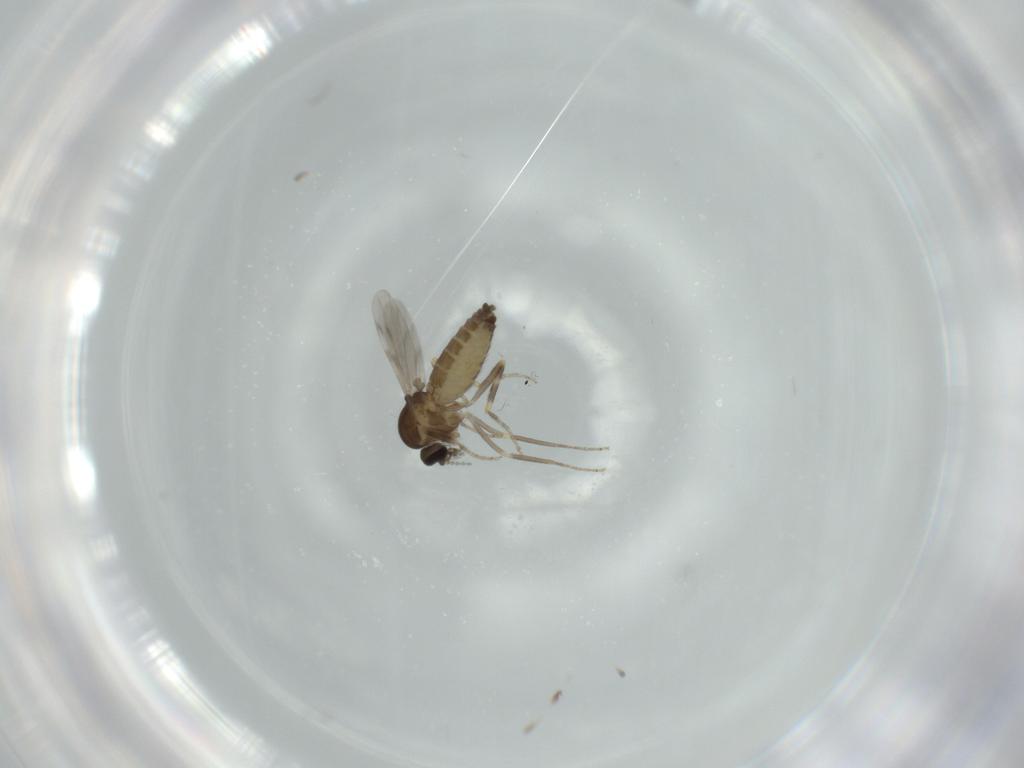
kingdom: Animalia
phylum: Arthropoda
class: Insecta
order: Diptera
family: Ceratopogonidae
